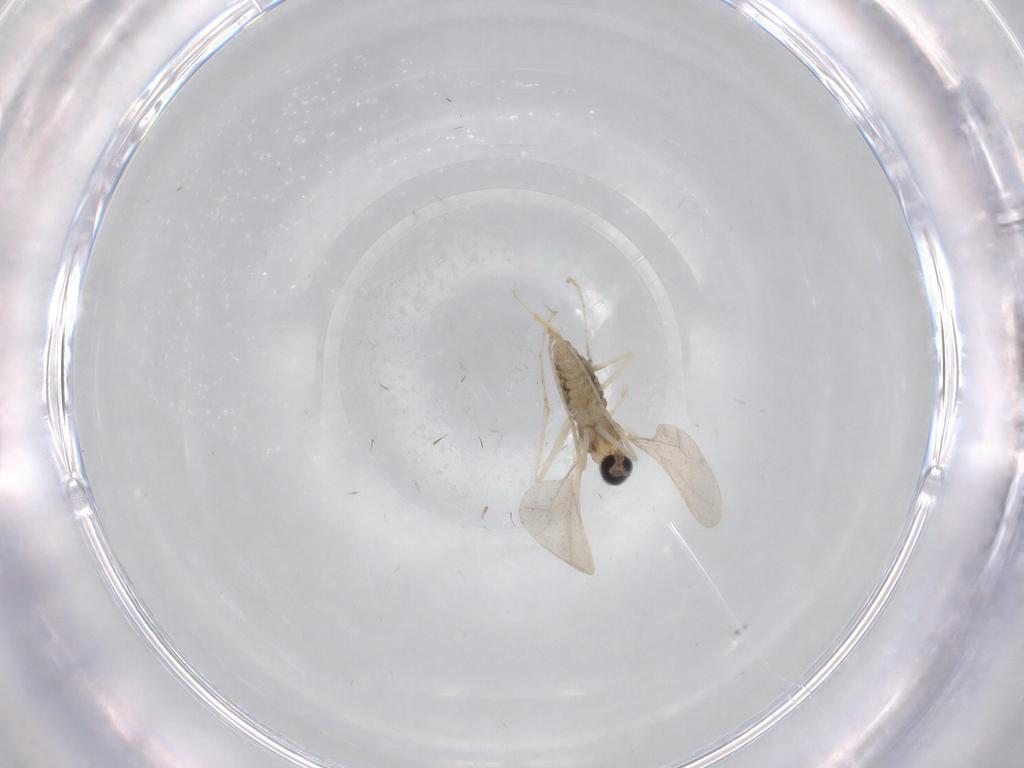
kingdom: Animalia
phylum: Arthropoda
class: Insecta
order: Diptera
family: Cecidomyiidae
